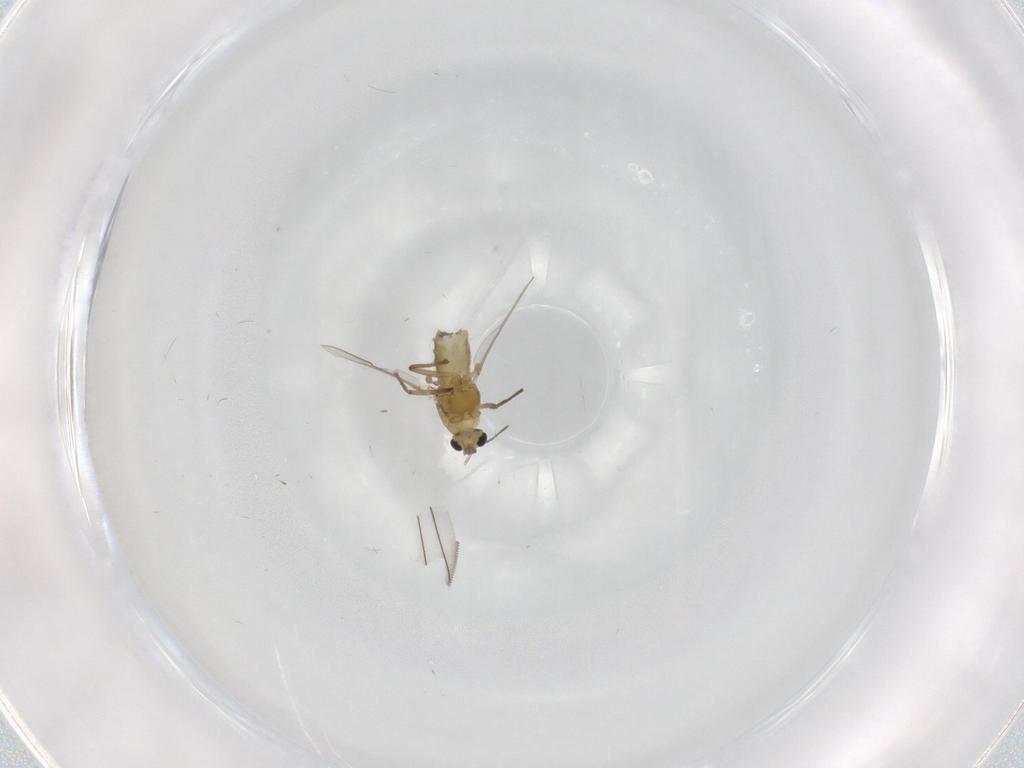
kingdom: Animalia
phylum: Arthropoda
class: Insecta
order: Diptera
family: Chironomidae
